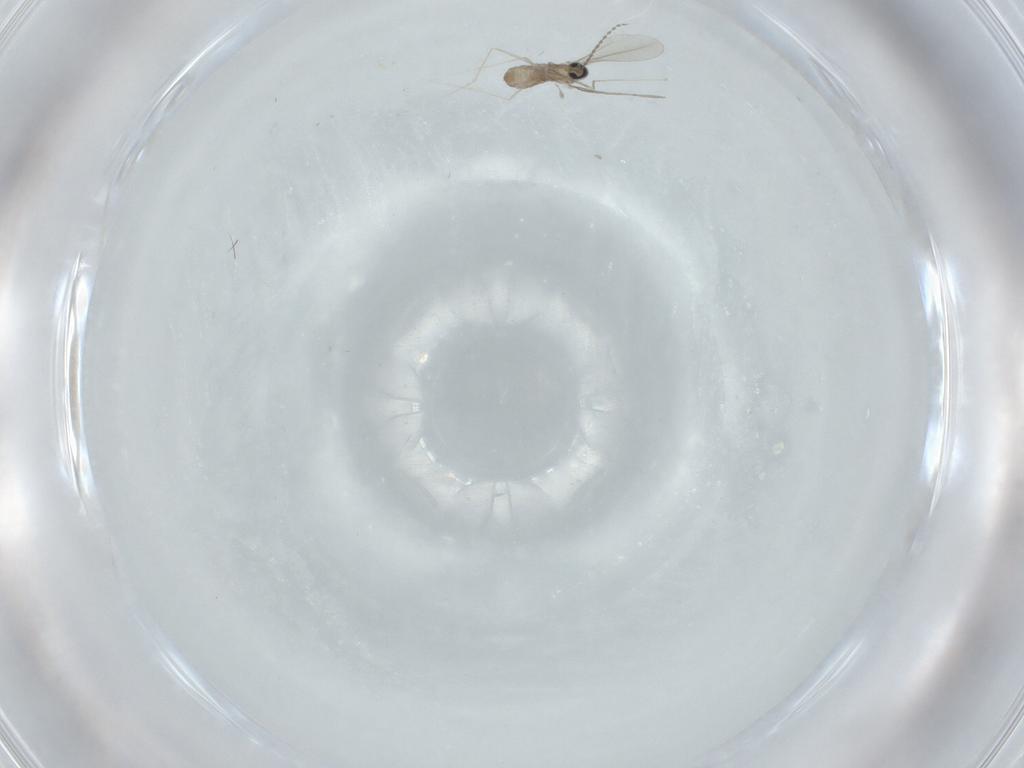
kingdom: Animalia
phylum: Arthropoda
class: Insecta
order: Diptera
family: Cecidomyiidae
